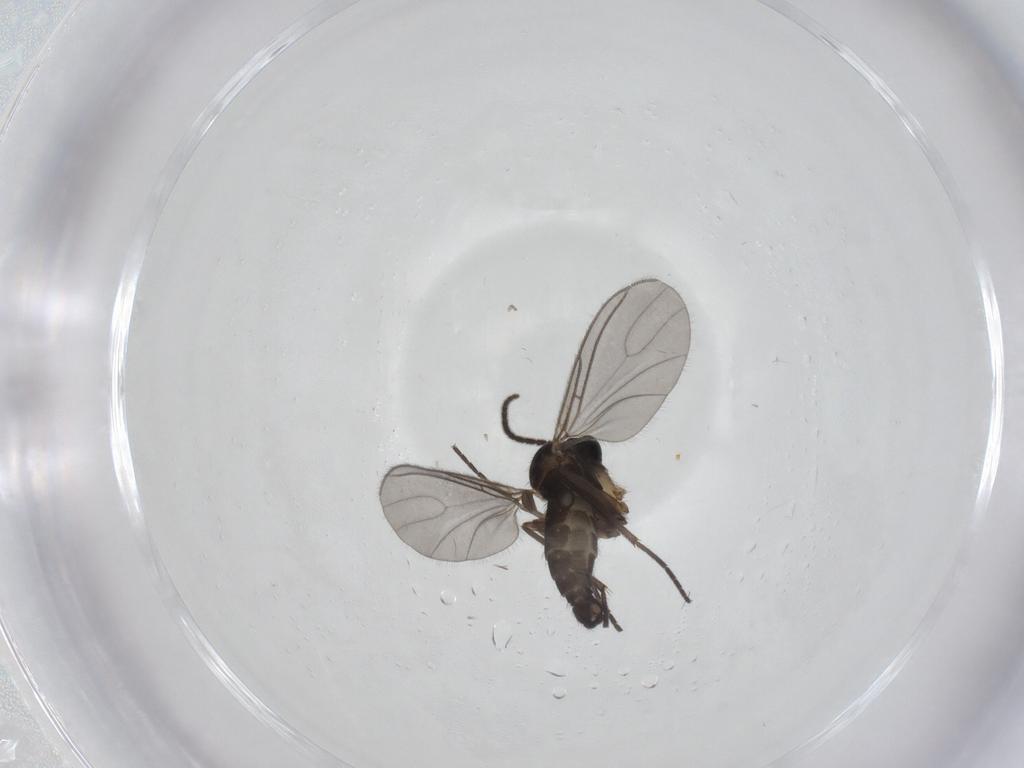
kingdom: Animalia
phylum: Arthropoda
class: Insecta
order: Diptera
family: Sciaridae
